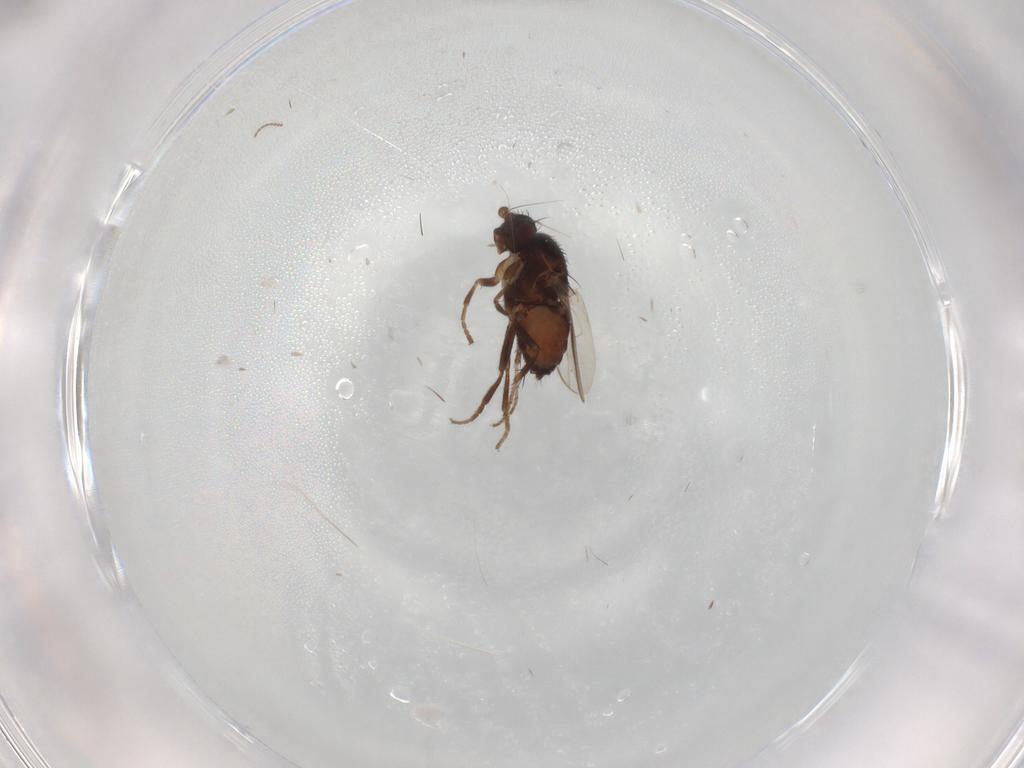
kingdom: Animalia
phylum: Arthropoda
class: Insecta
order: Diptera
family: Sphaeroceridae
